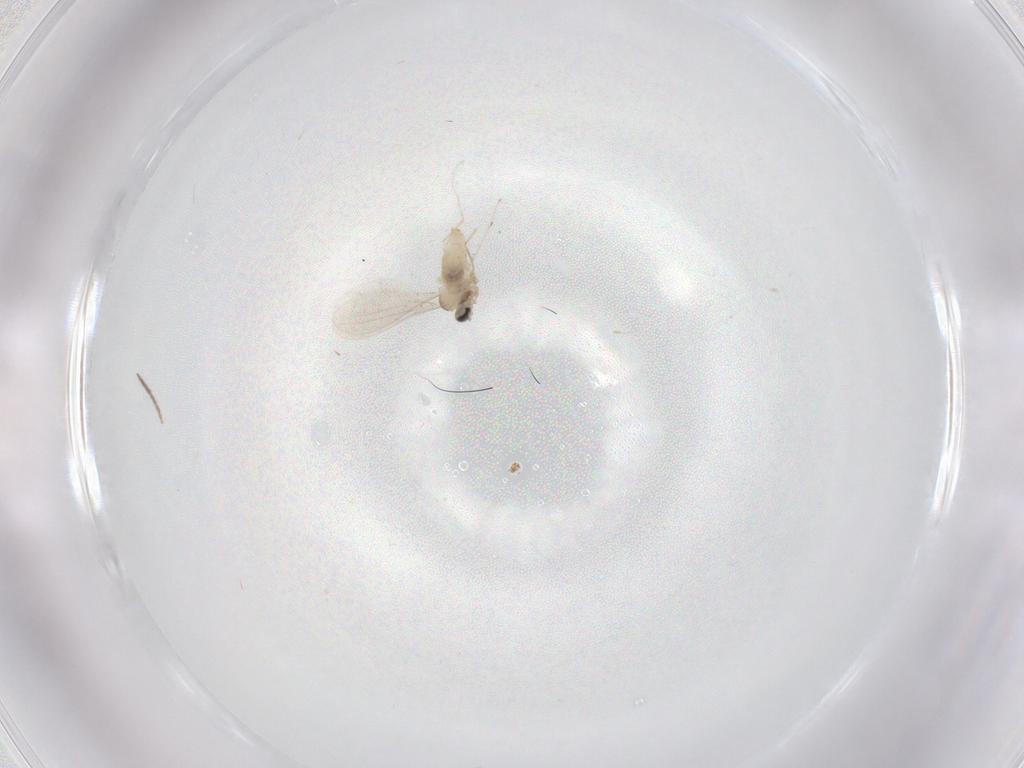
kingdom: Animalia
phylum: Arthropoda
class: Insecta
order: Diptera
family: Cecidomyiidae
